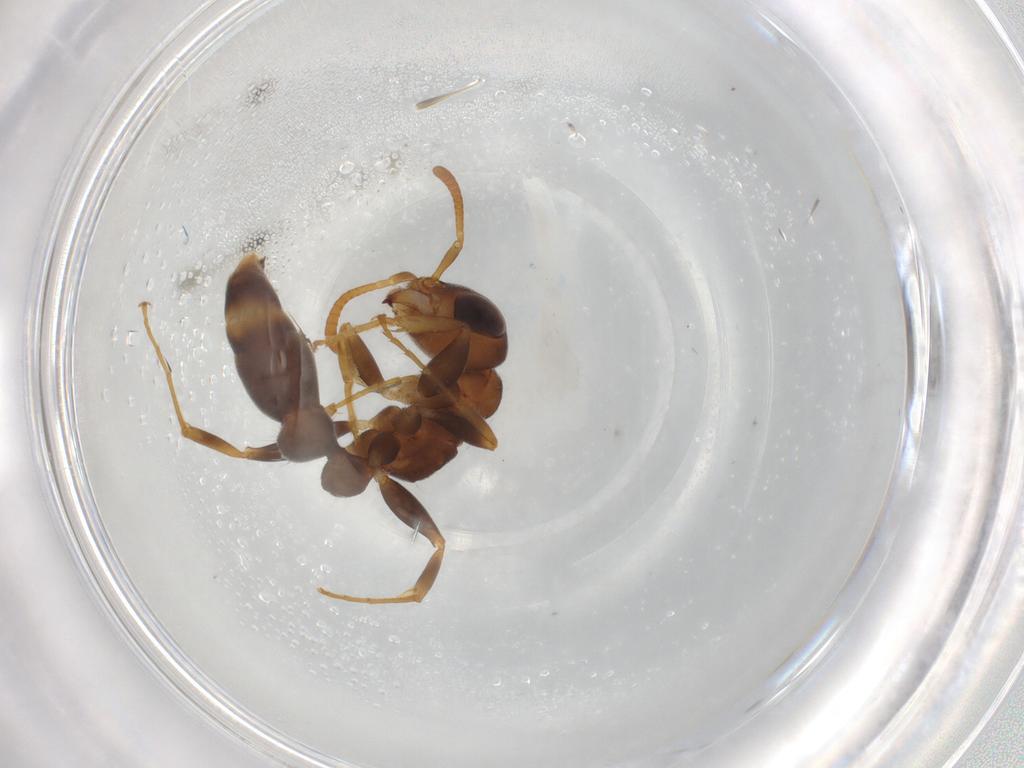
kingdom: Animalia
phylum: Arthropoda
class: Insecta
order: Hymenoptera
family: Formicidae
